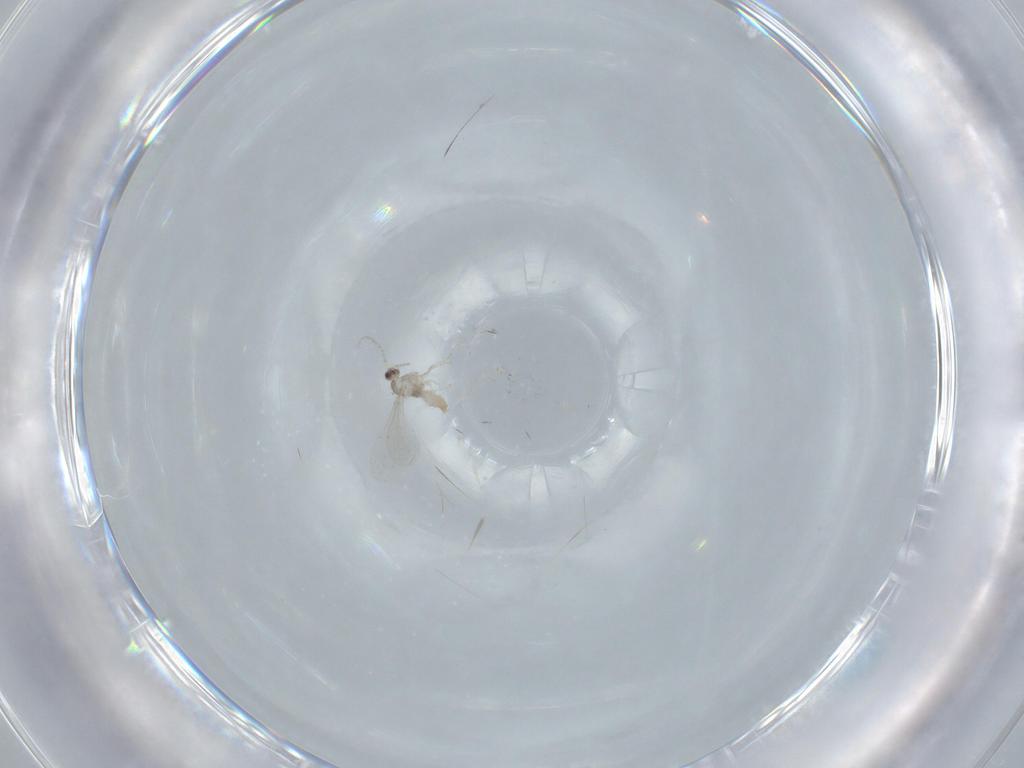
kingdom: Animalia
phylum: Arthropoda
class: Insecta
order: Diptera
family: Cecidomyiidae
